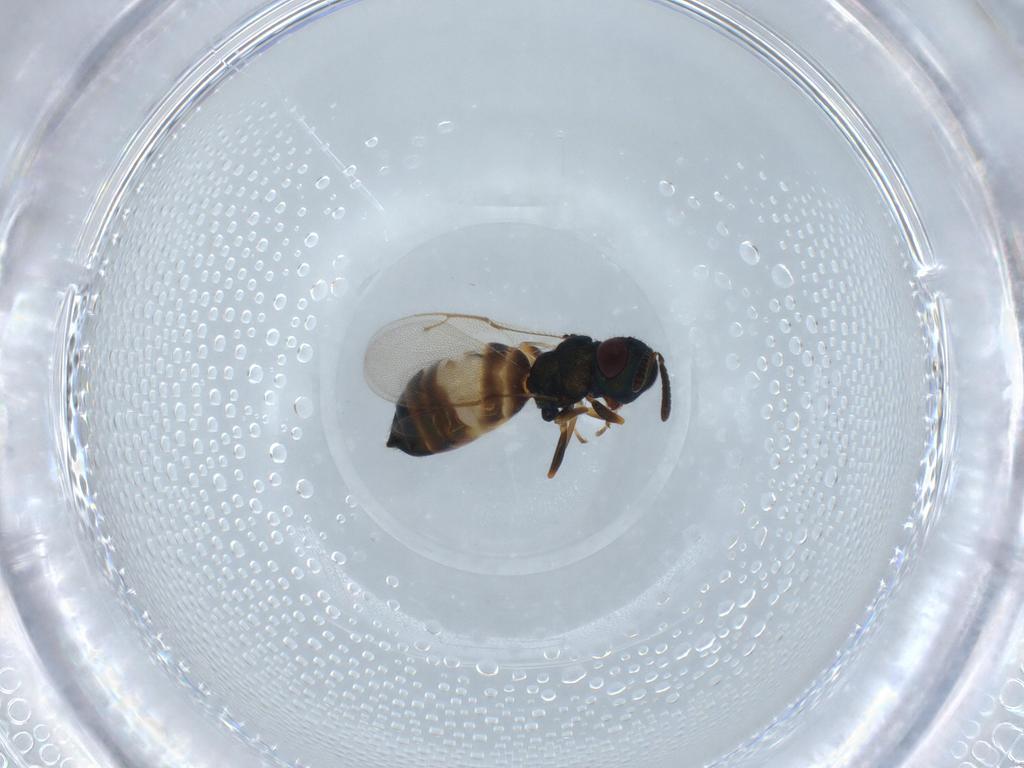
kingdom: Animalia
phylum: Arthropoda
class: Insecta
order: Hymenoptera
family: Pteromalidae
